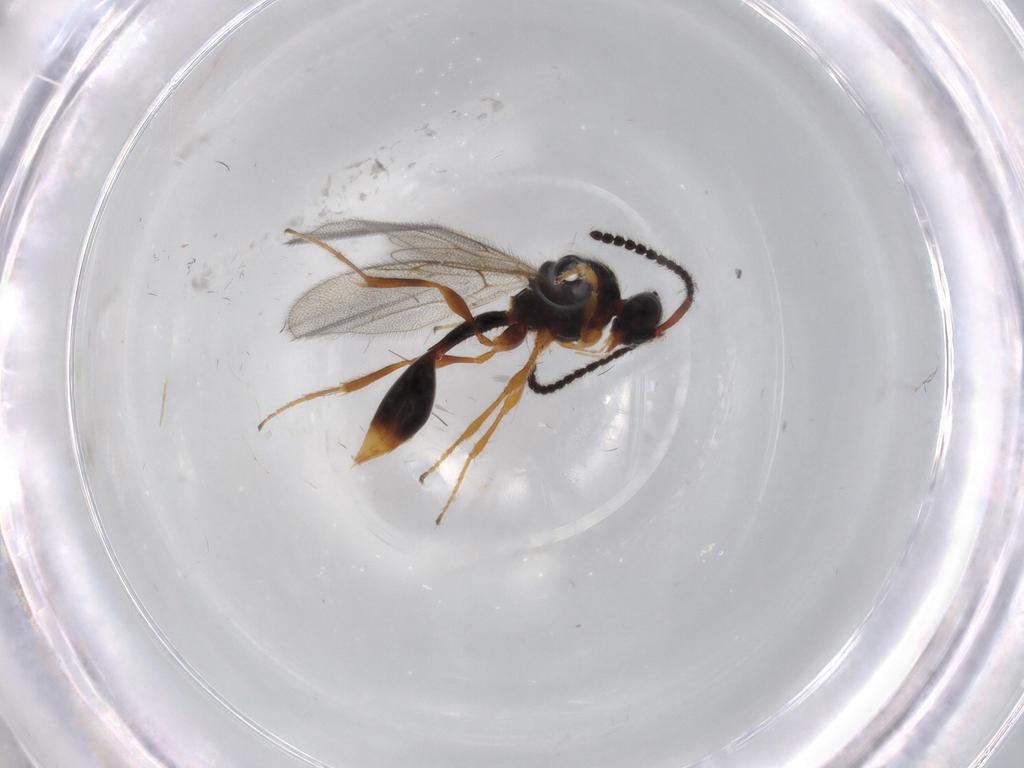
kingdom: Animalia
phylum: Arthropoda
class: Insecta
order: Hymenoptera
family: Diapriidae
